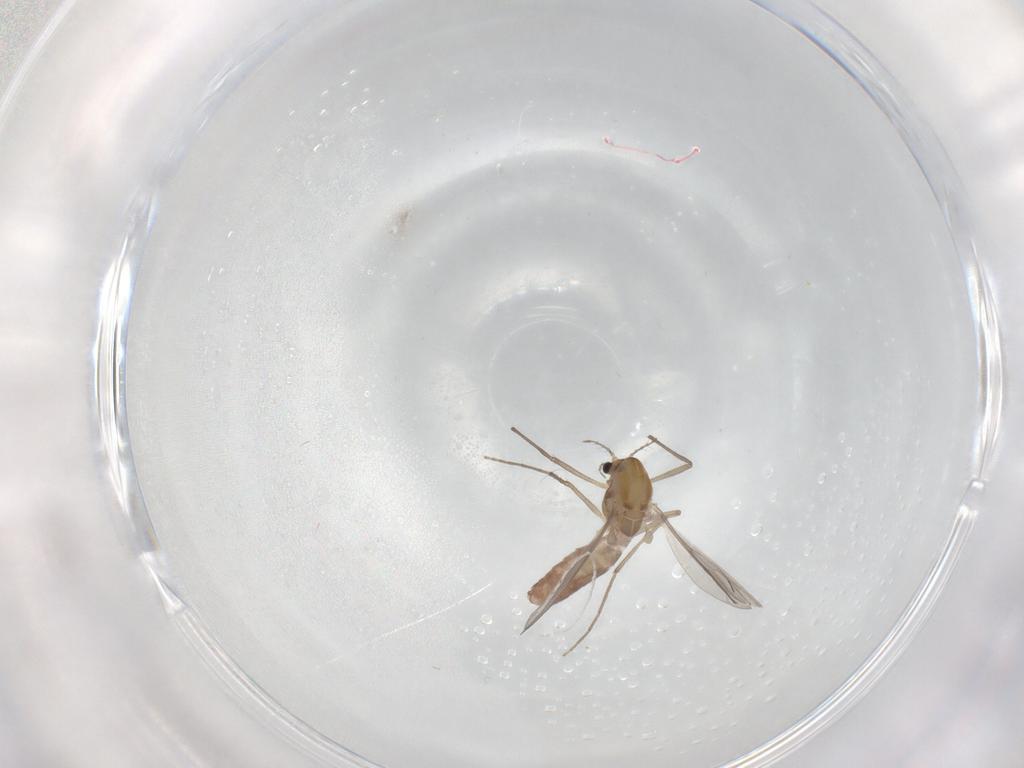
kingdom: Animalia
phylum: Arthropoda
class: Insecta
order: Diptera
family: Chironomidae
